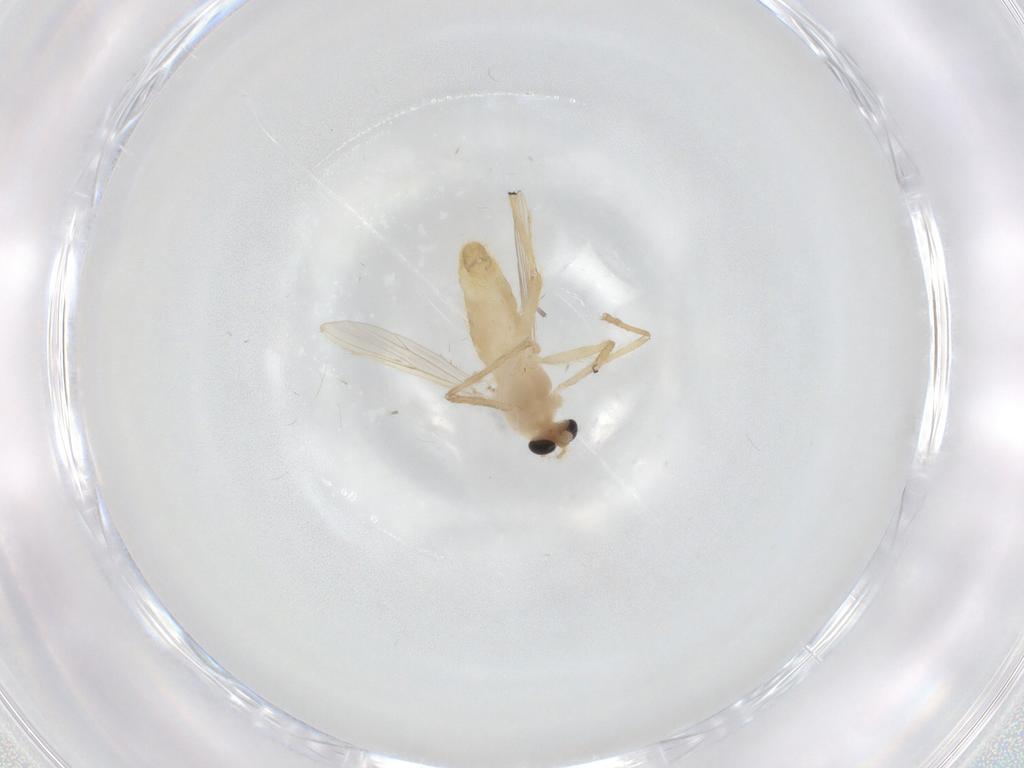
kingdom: Animalia
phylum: Arthropoda
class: Insecta
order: Diptera
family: Chironomidae
